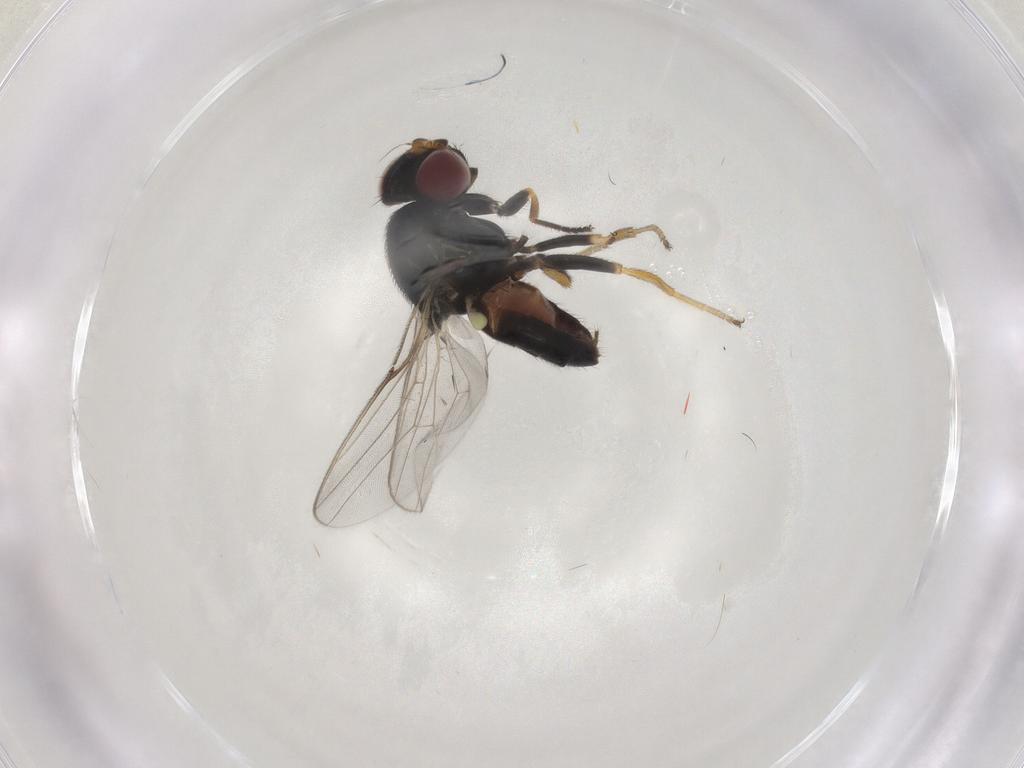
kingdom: Animalia
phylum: Arthropoda
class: Insecta
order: Diptera
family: Chloropidae
